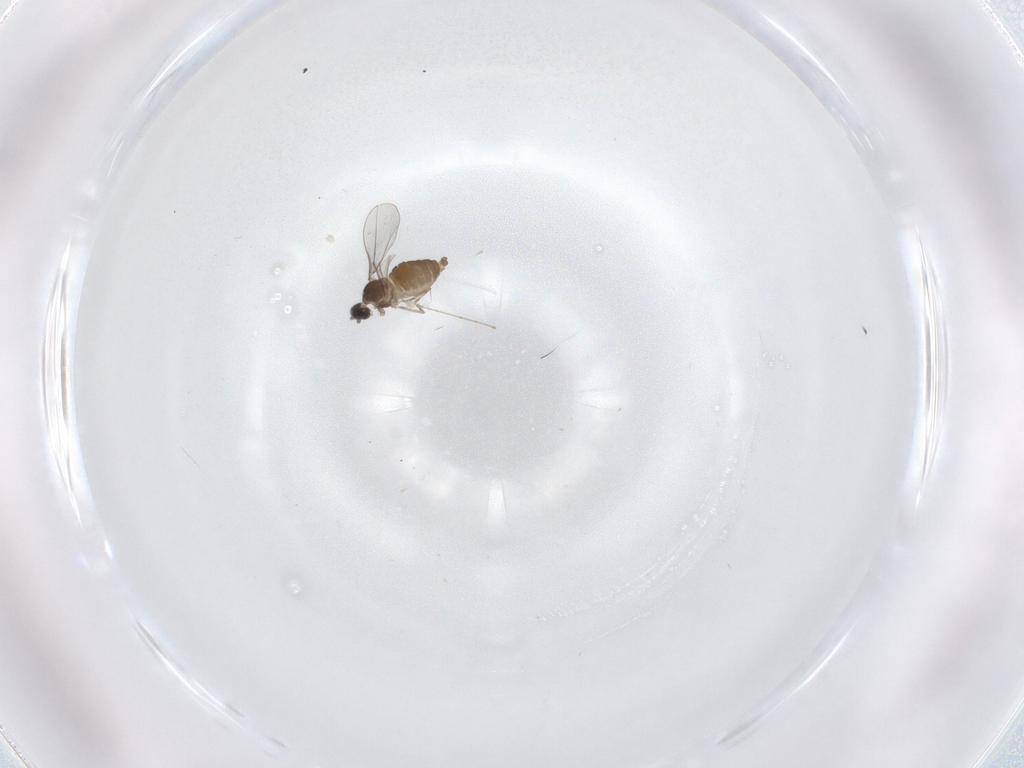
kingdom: Animalia
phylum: Arthropoda
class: Insecta
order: Diptera
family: Cecidomyiidae
